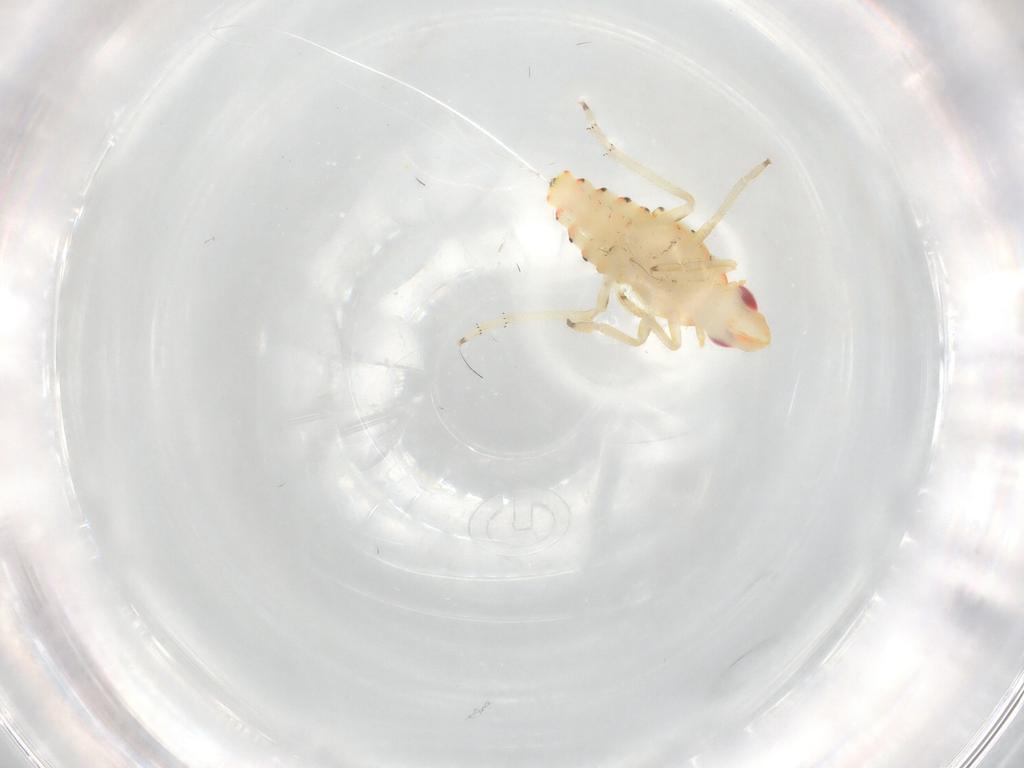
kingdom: Animalia
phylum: Arthropoda
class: Insecta
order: Hemiptera
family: Tropiduchidae
